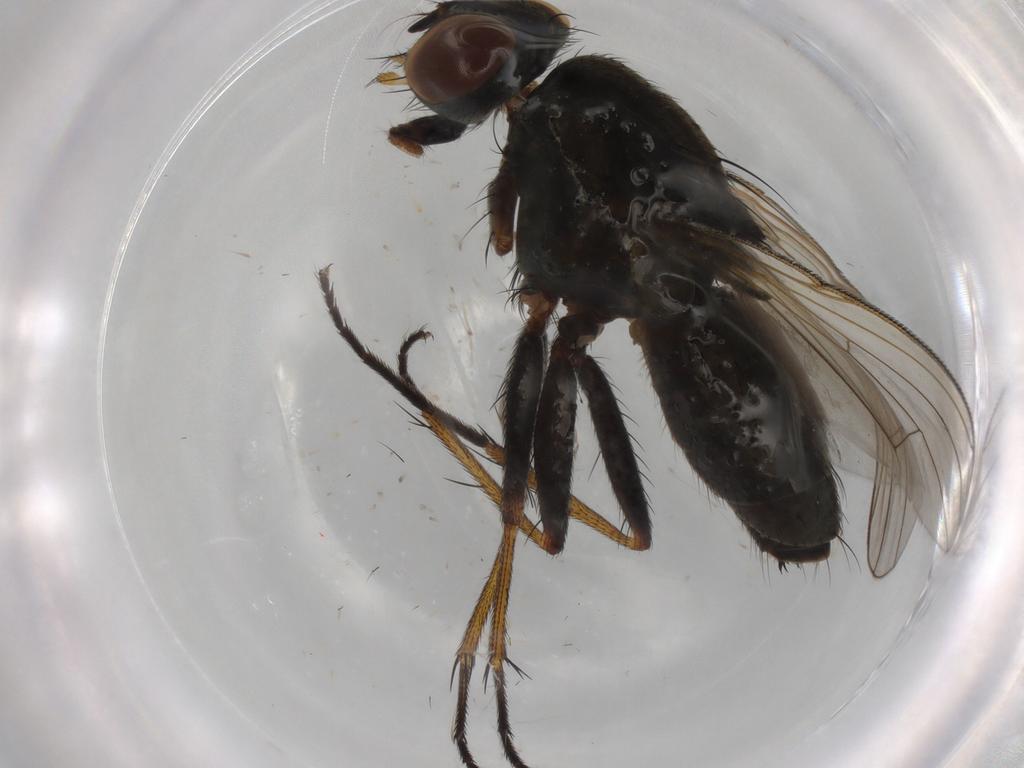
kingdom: Animalia
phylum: Arthropoda
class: Insecta
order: Diptera
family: Muscidae
